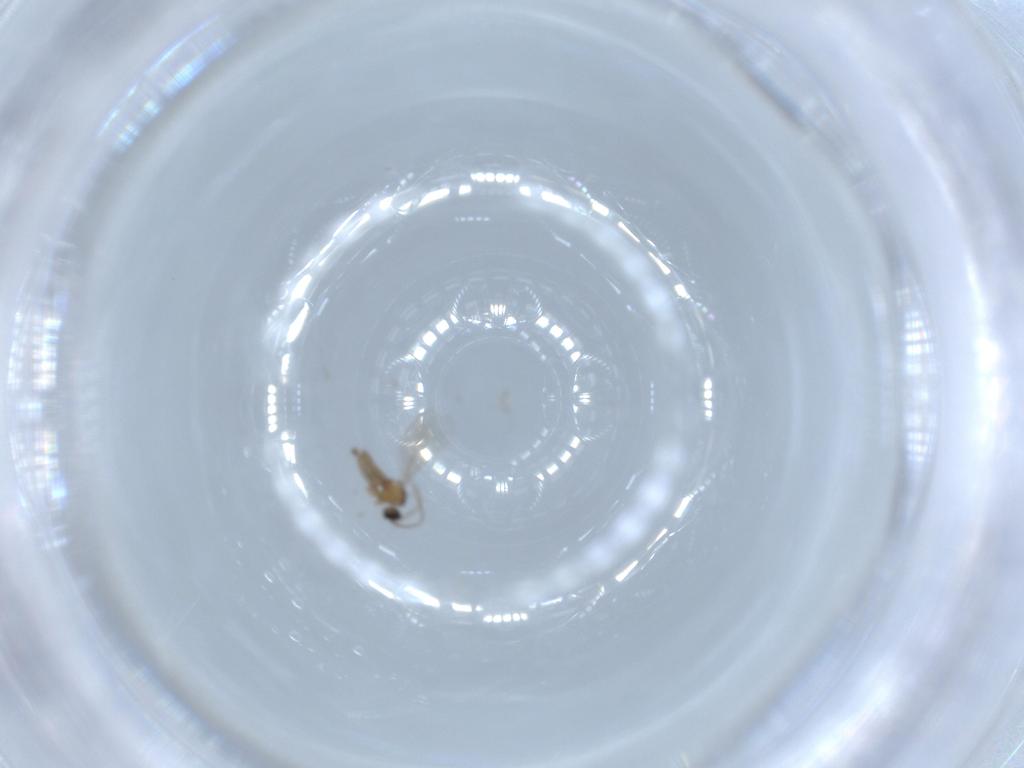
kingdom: Animalia
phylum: Arthropoda
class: Insecta
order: Diptera
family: Cecidomyiidae
